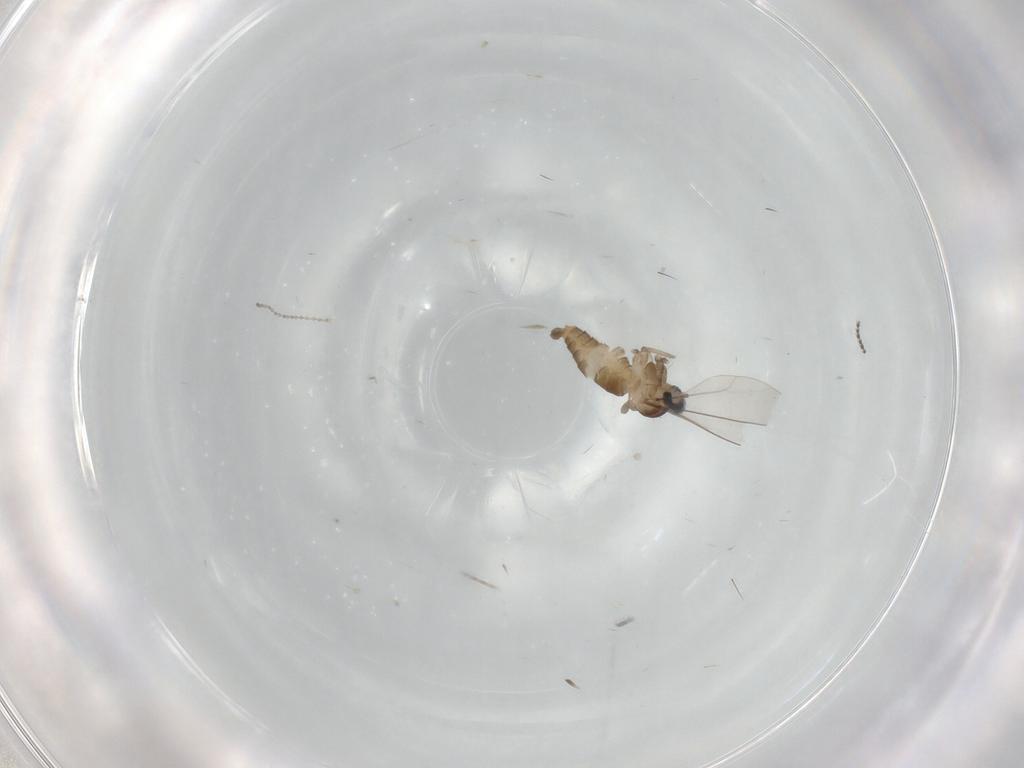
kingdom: Animalia
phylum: Arthropoda
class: Insecta
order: Diptera
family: Cecidomyiidae
